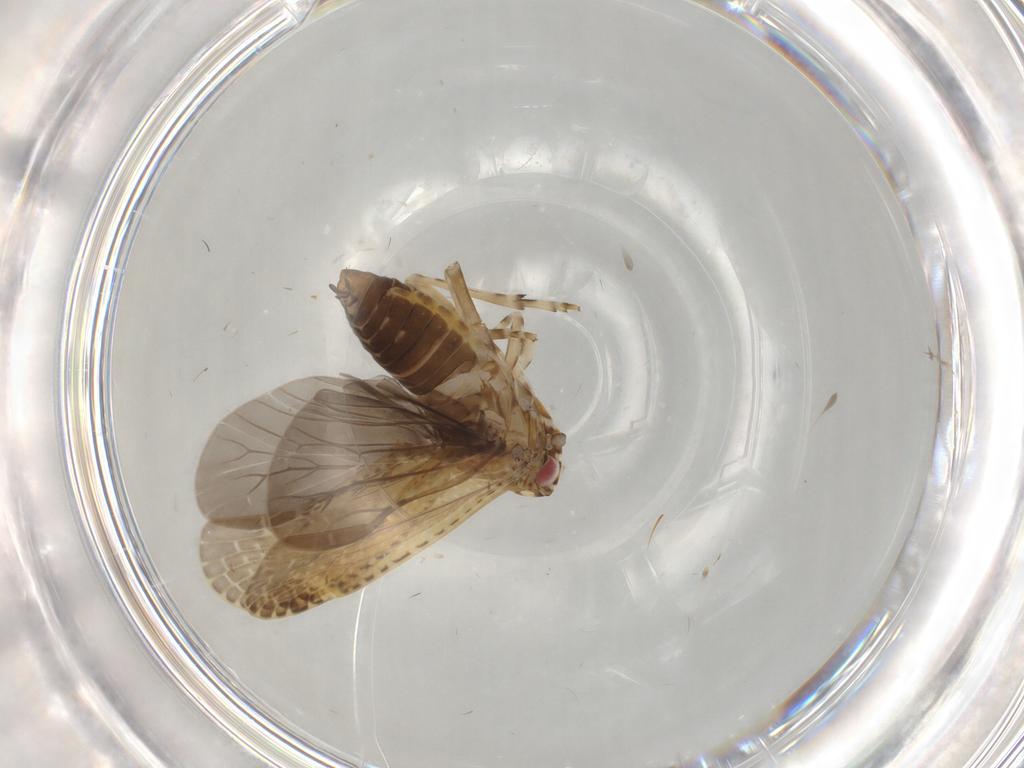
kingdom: Animalia
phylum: Arthropoda
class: Insecta
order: Hemiptera
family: Achilidae
